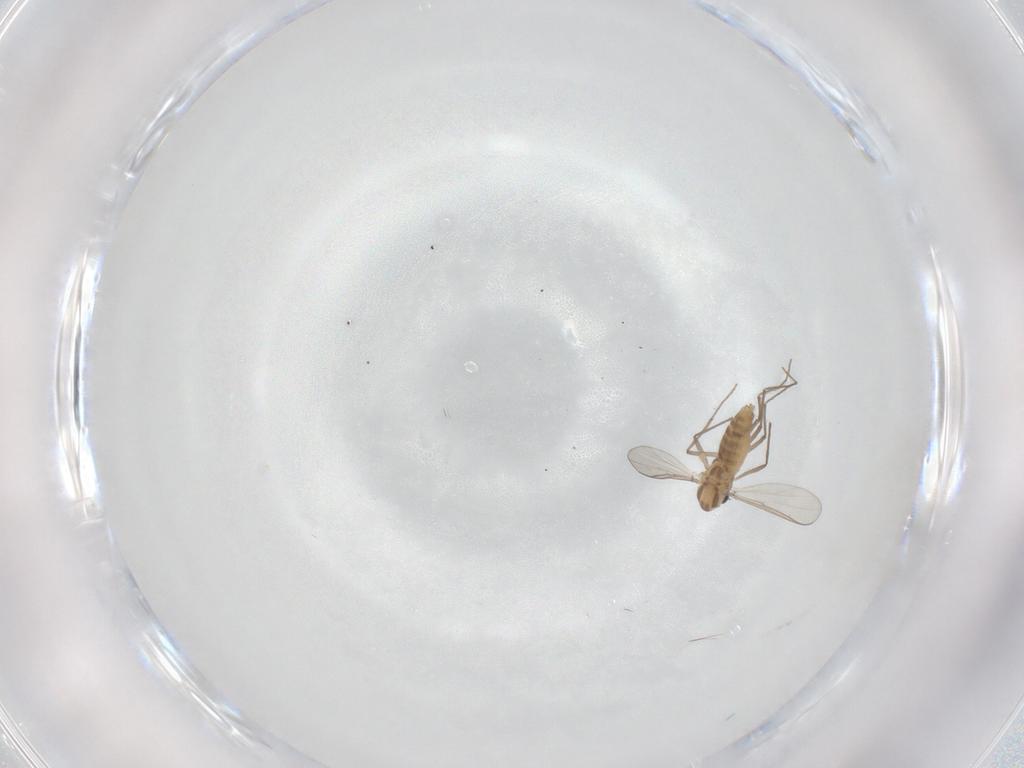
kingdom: Animalia
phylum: Arthropoda
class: Insecta
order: Diptera
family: Chironomidae
